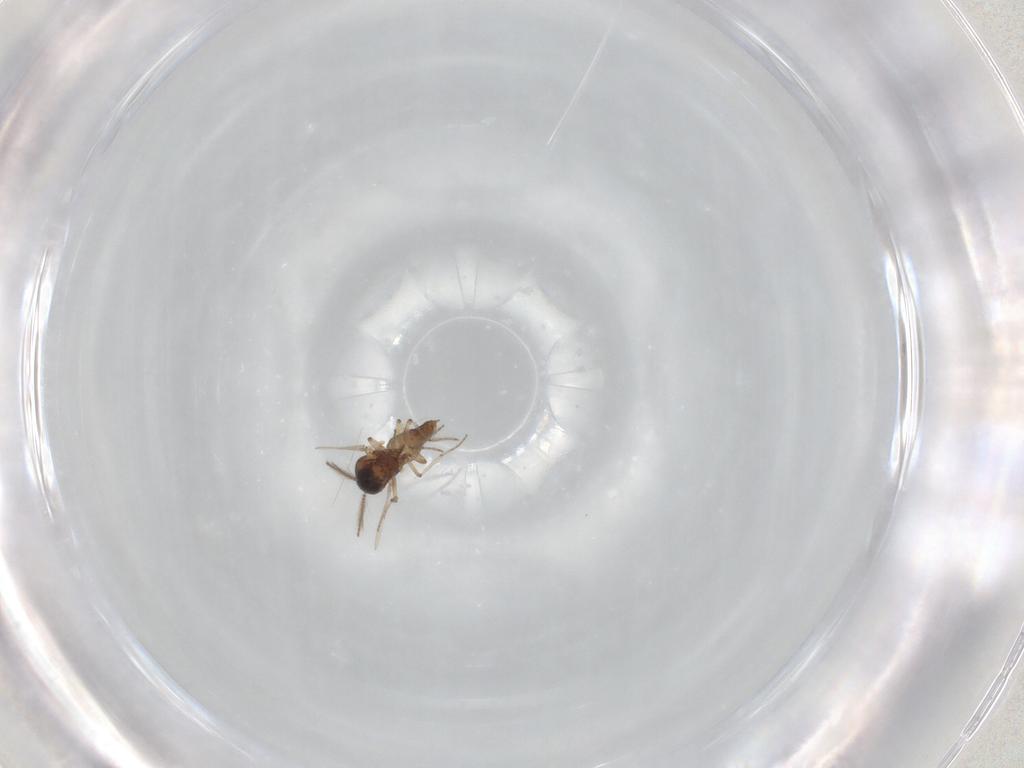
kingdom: Animalia
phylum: Arthropoda
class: Insecta
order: Diptera
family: Ceratopogonidae
